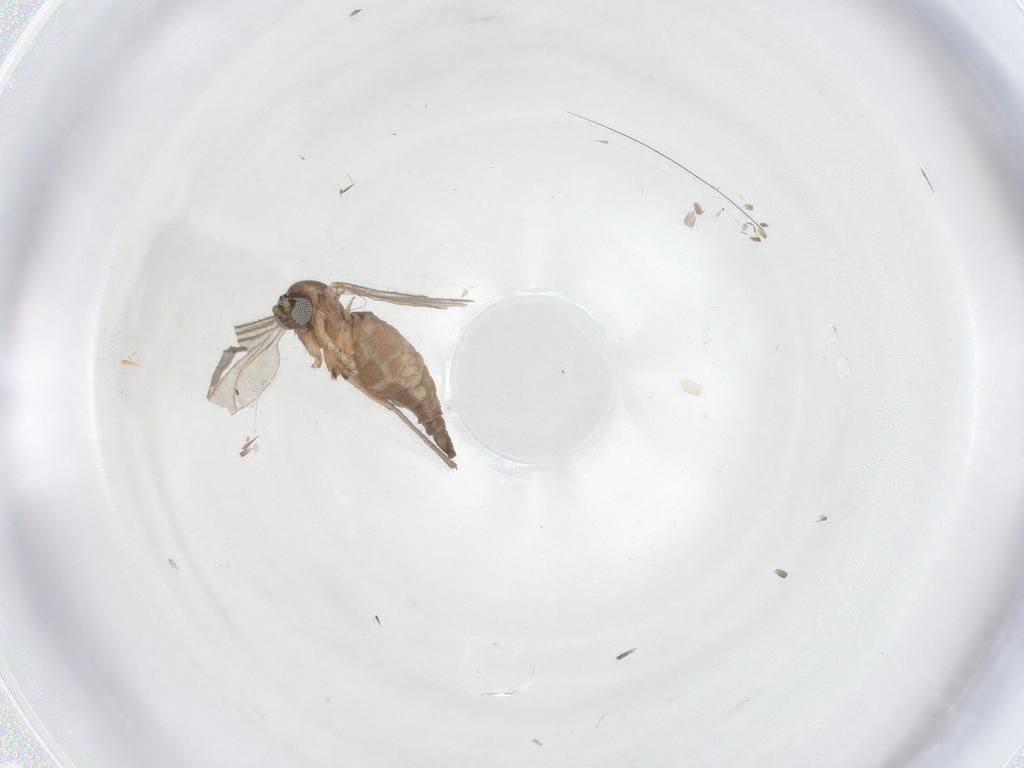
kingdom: Animalia
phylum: Arthropoda
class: Insecta
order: Diptera
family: Sciaridae
